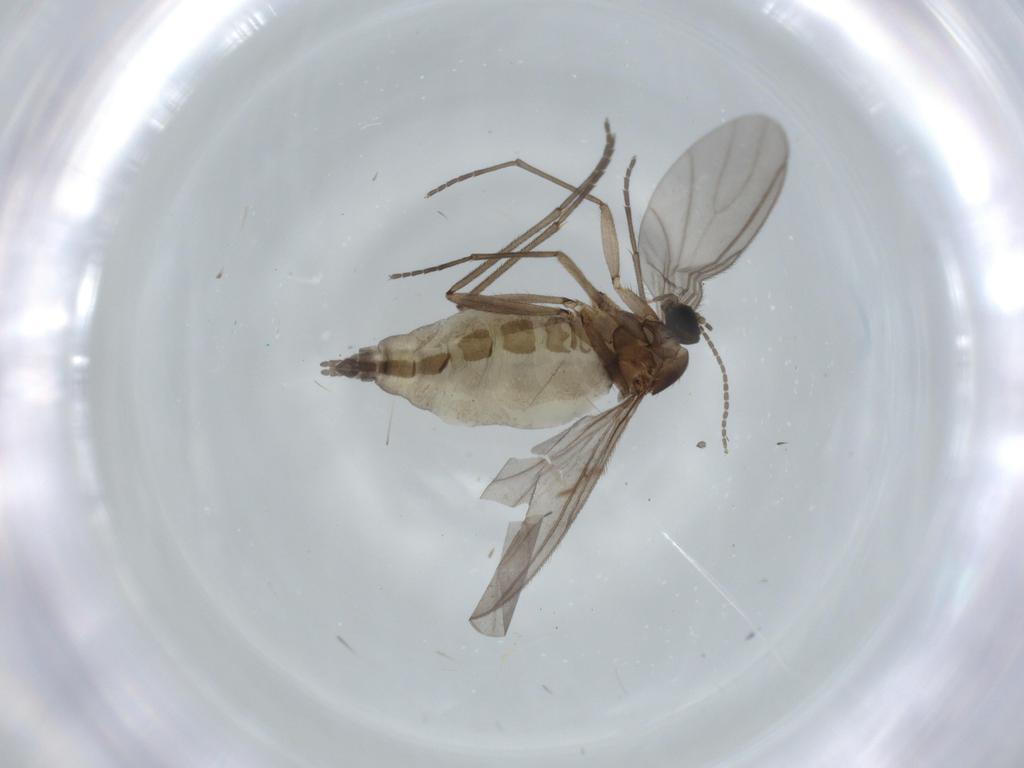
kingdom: Animalia
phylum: Arthropoda
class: Insecta
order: Diptera
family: Sciaridae
